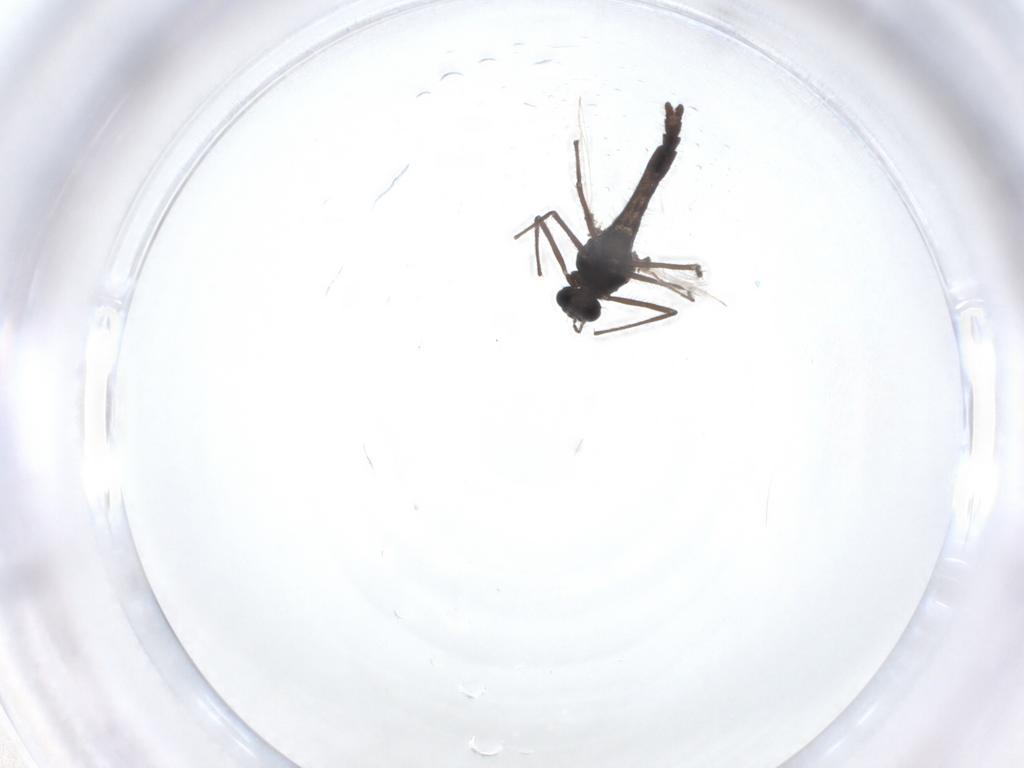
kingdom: Animalia
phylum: Arthropoda
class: Insecta
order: Diptera
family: Chironomidae
